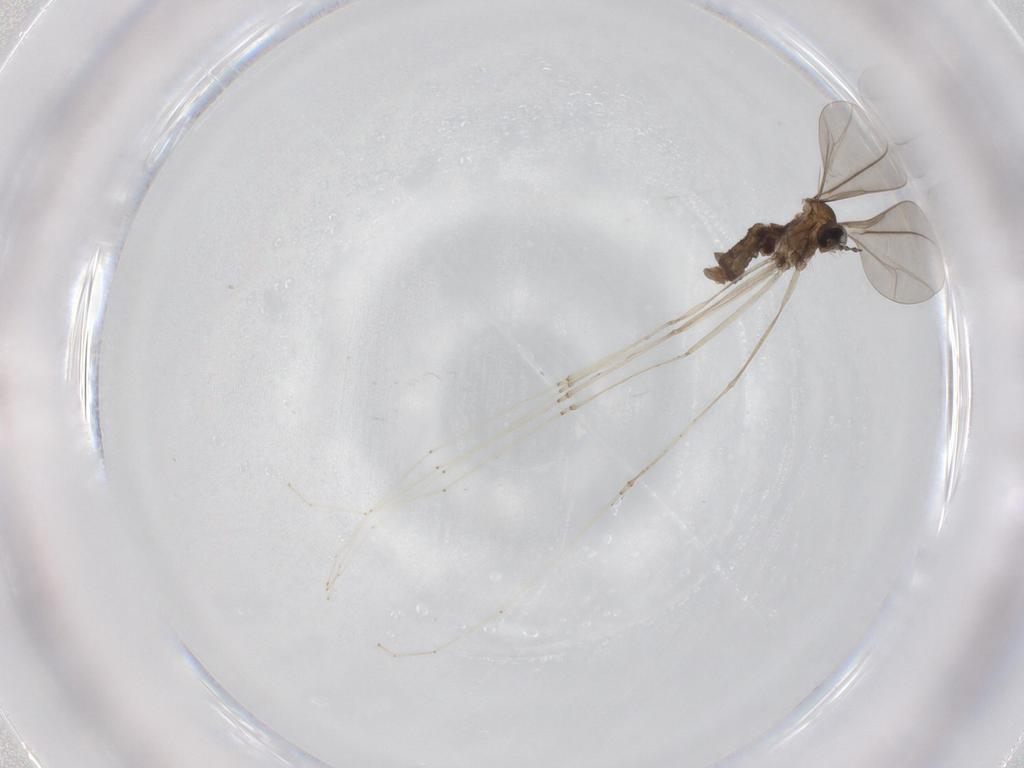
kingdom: Animalia
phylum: Arthropoda
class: Insecta
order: Diptera
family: Cecidomyiidae
